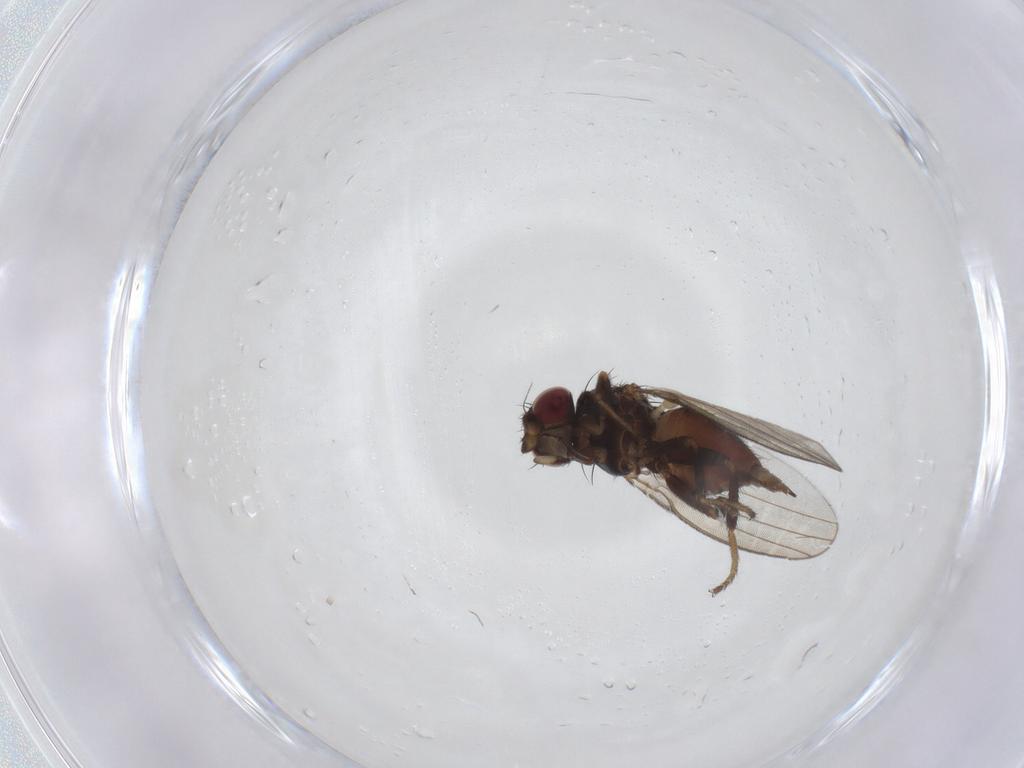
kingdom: Animalia
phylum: Arthropoda
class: Insecta
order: Diptera
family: Milichiidae
